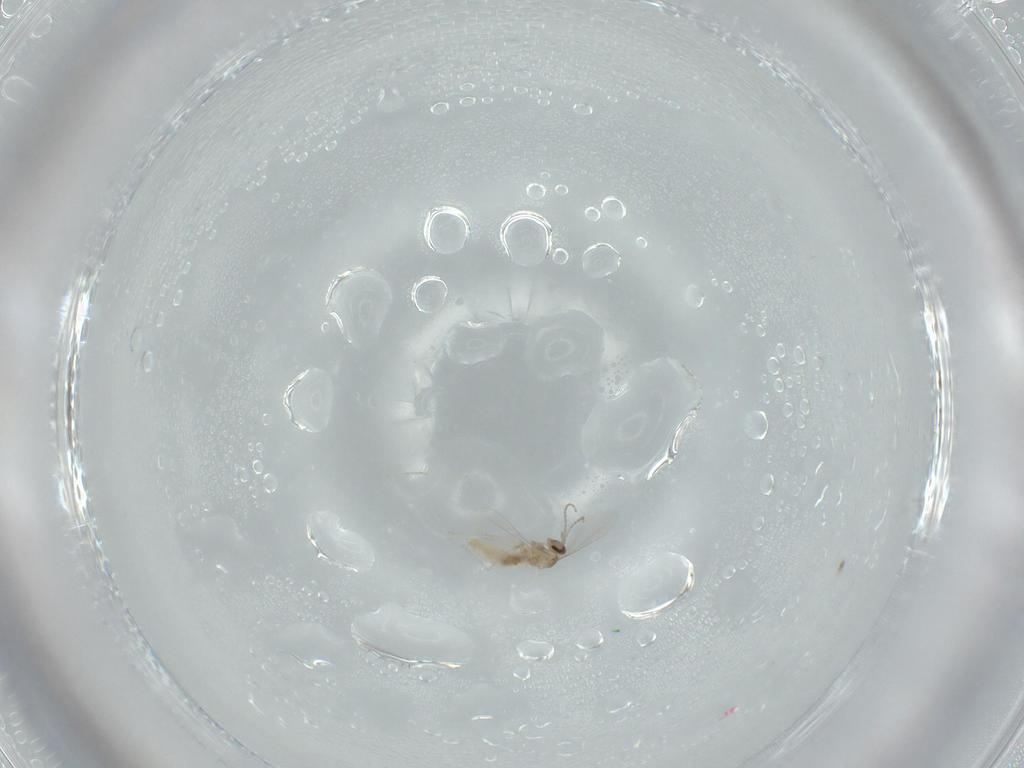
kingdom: Animalia
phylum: Arthropoda
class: Insecta
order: Diptera
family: Cecidomyiidae
